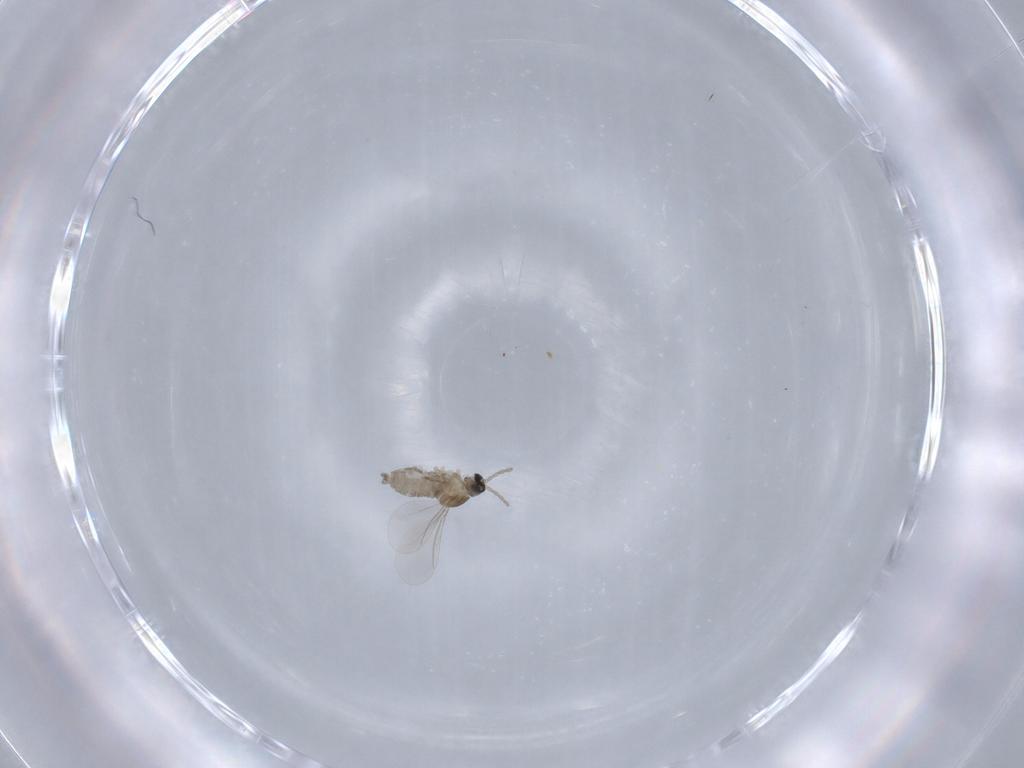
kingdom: Animalia
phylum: Arthropoda
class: Insecta
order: Diptera
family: Cecidomyiidae
